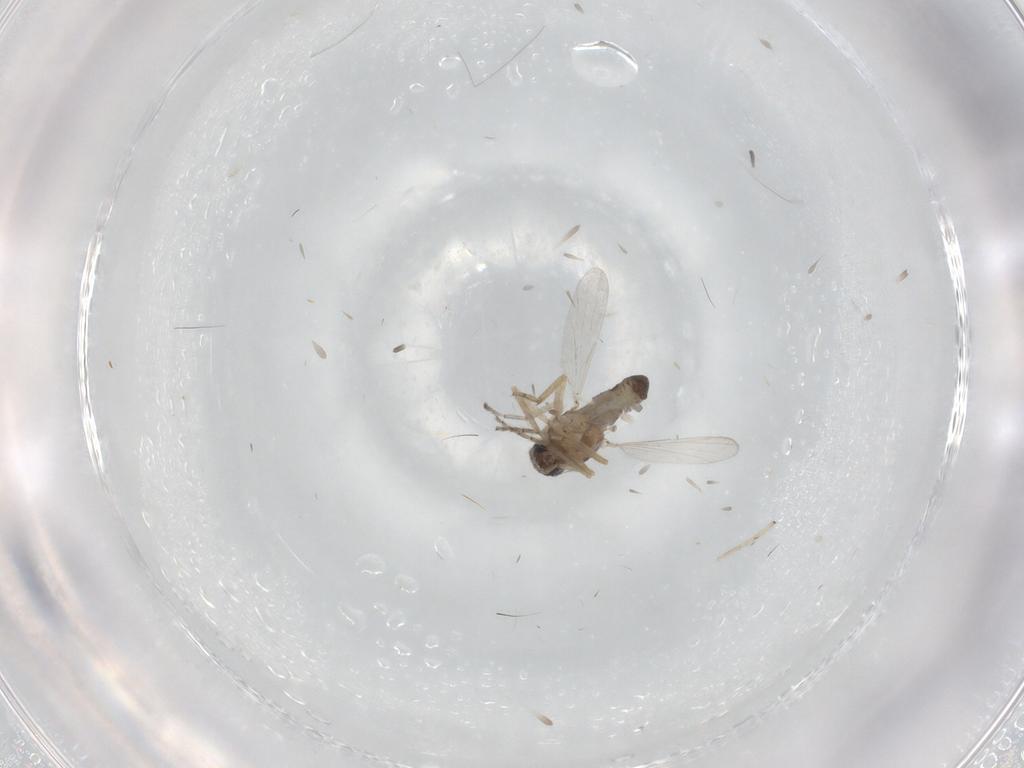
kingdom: Animalia
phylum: Arthropoda
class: Insecta
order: Diptera
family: Ceratopogonidae
